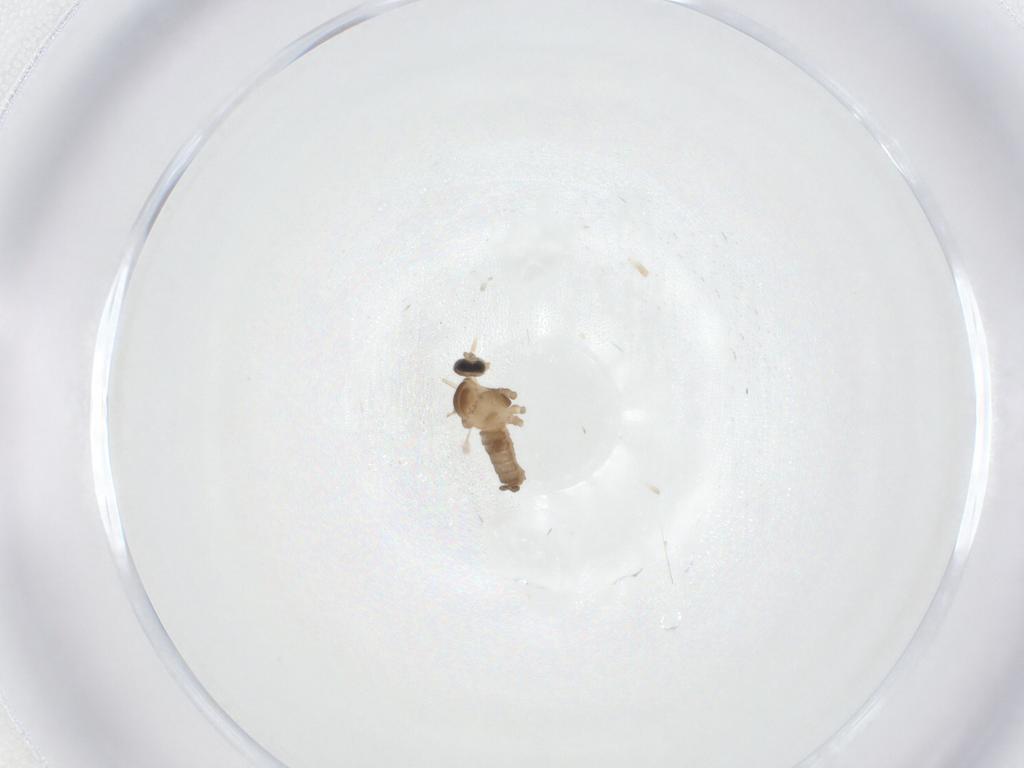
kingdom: Animalia
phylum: Arthropoda
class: Insecta
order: Diptera
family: Cecidomyiidae
